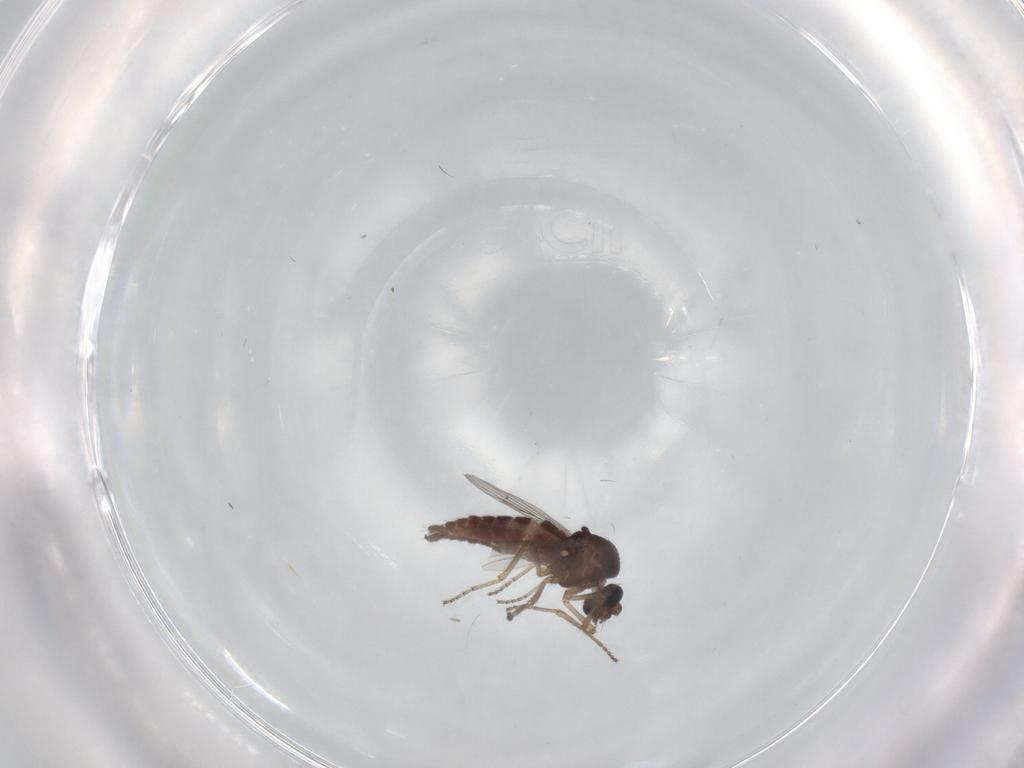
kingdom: Animalia
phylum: Arthropoda
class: Insecta
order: Diptera
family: Ceratopogonidae
